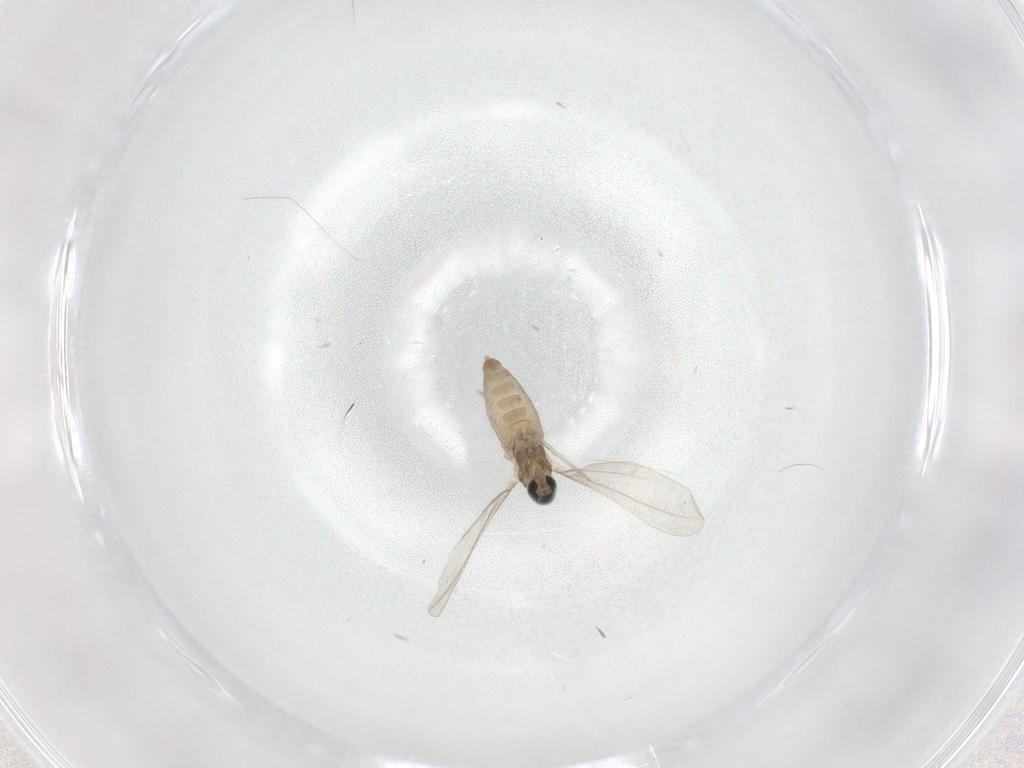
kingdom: Animalia
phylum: Arthropoda
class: Insecta
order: Diptera
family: Cecidomyiidae
